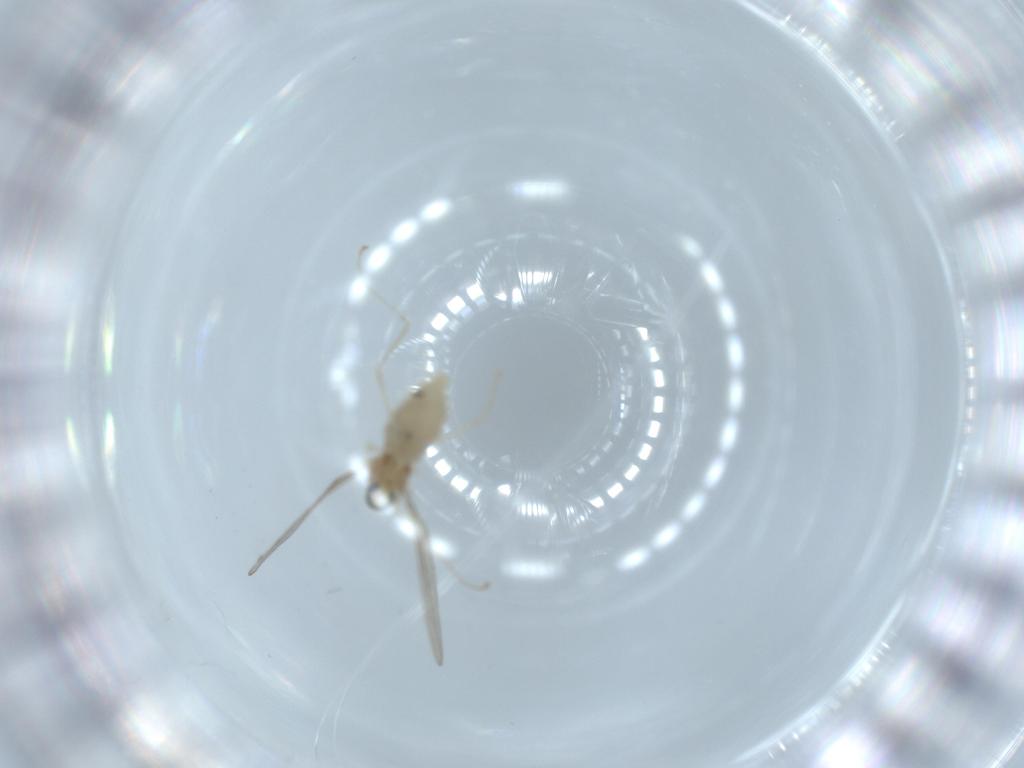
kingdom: Animalia
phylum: Arthropoda
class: Insecta
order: Diptera
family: Cecidomyiidae
